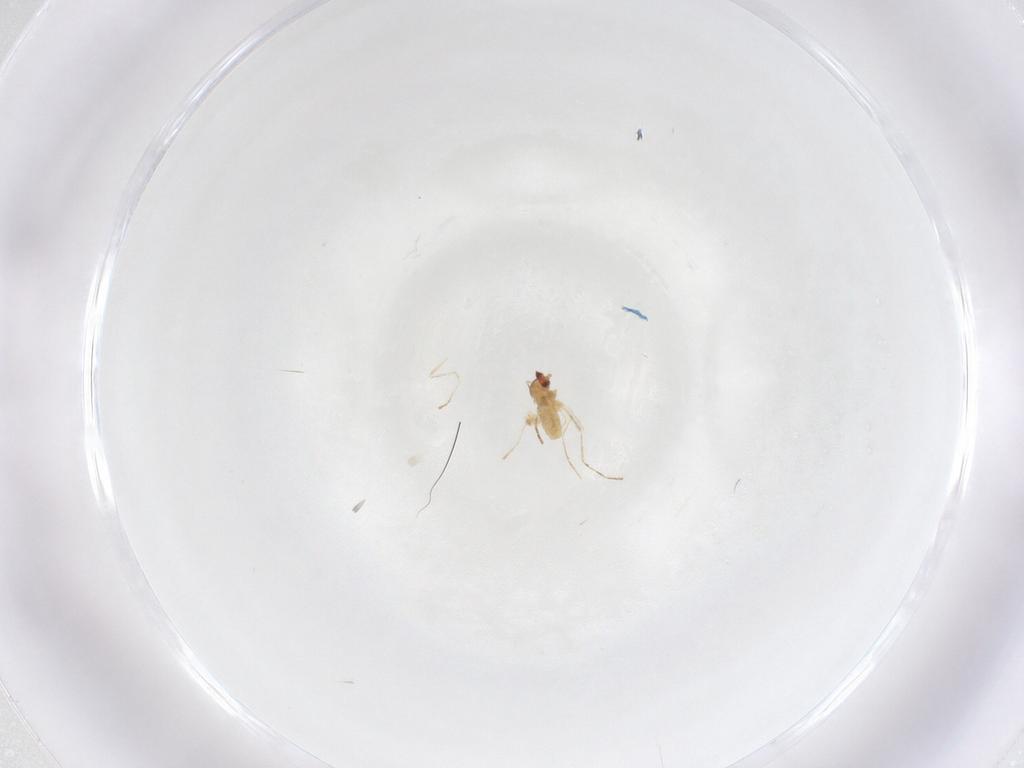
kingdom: Animalia
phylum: Arthropoda
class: Insecta
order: Diptera
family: Cecidomyiidae
